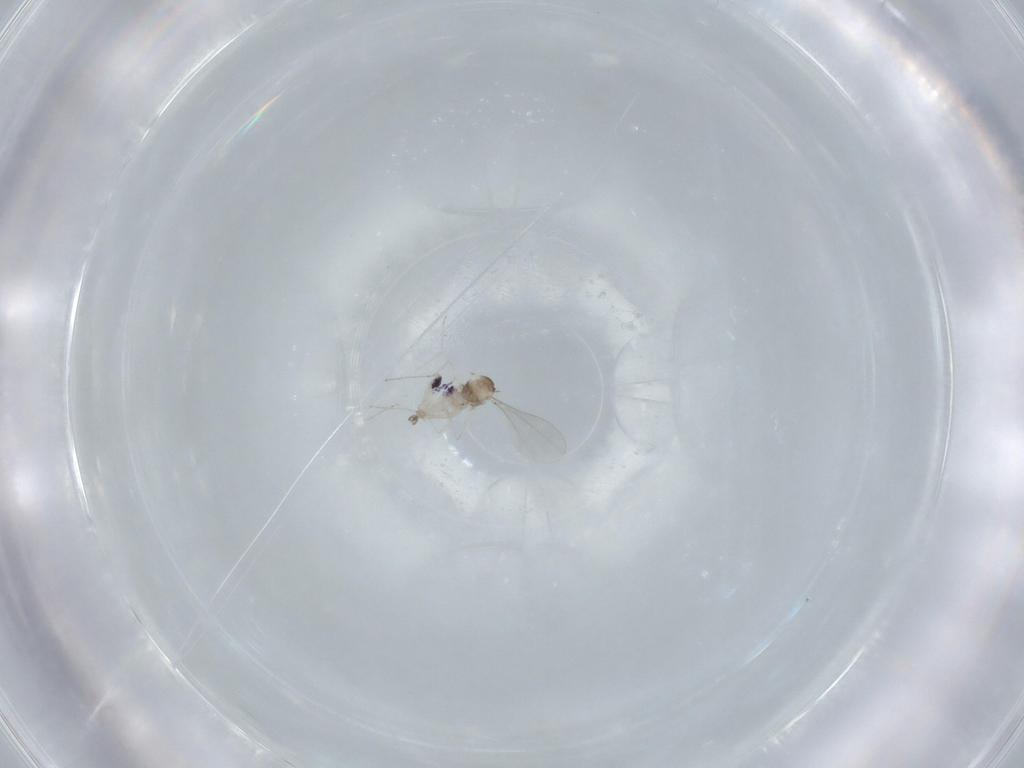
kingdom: Animalia
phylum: Arthropoda
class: Insecta
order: Diptera
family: Cecidomyiidae
